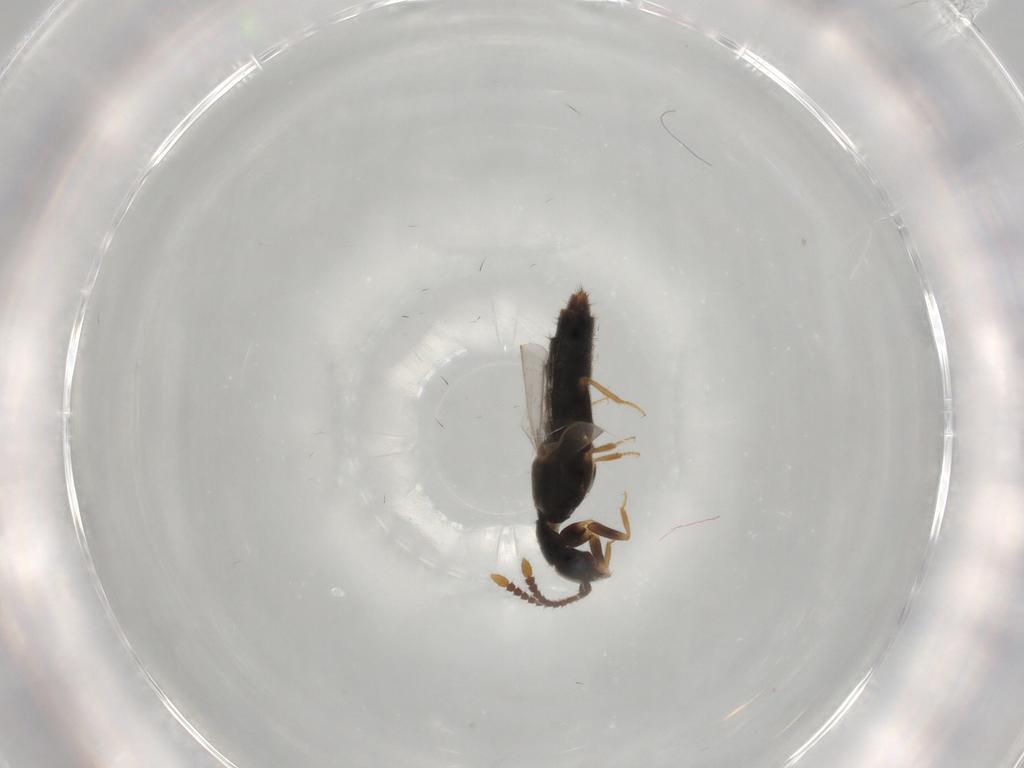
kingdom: Animalia
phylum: Arthropoda
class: Insecta
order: Coleoptera
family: Staphylinidae
